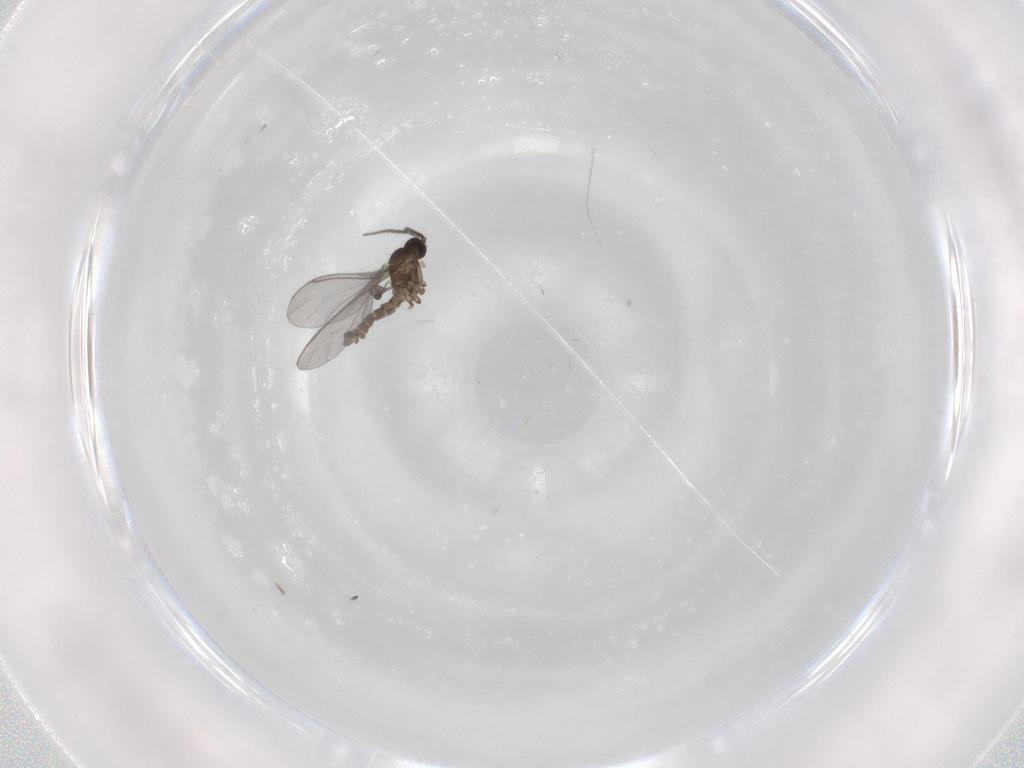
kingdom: Animalia
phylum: Arthropoda
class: Insecta
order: Diptera
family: Sciaridae
